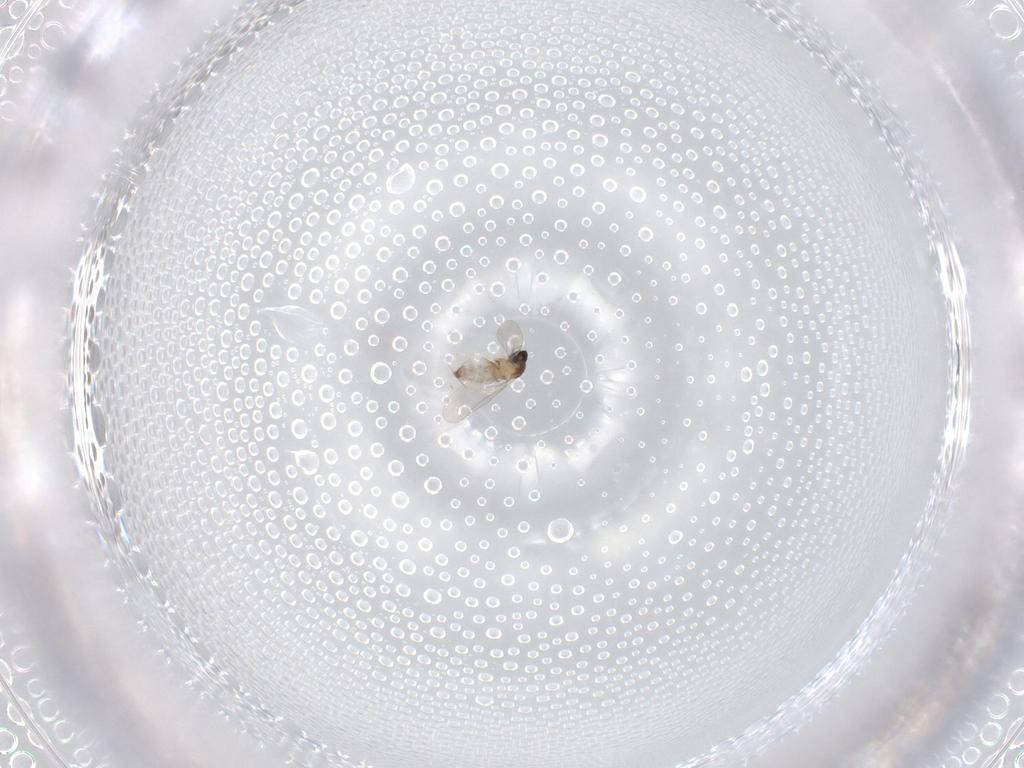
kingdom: Animalia
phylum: Arthropoda
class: Insecta
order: Diptera
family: Cecidomyiidae
